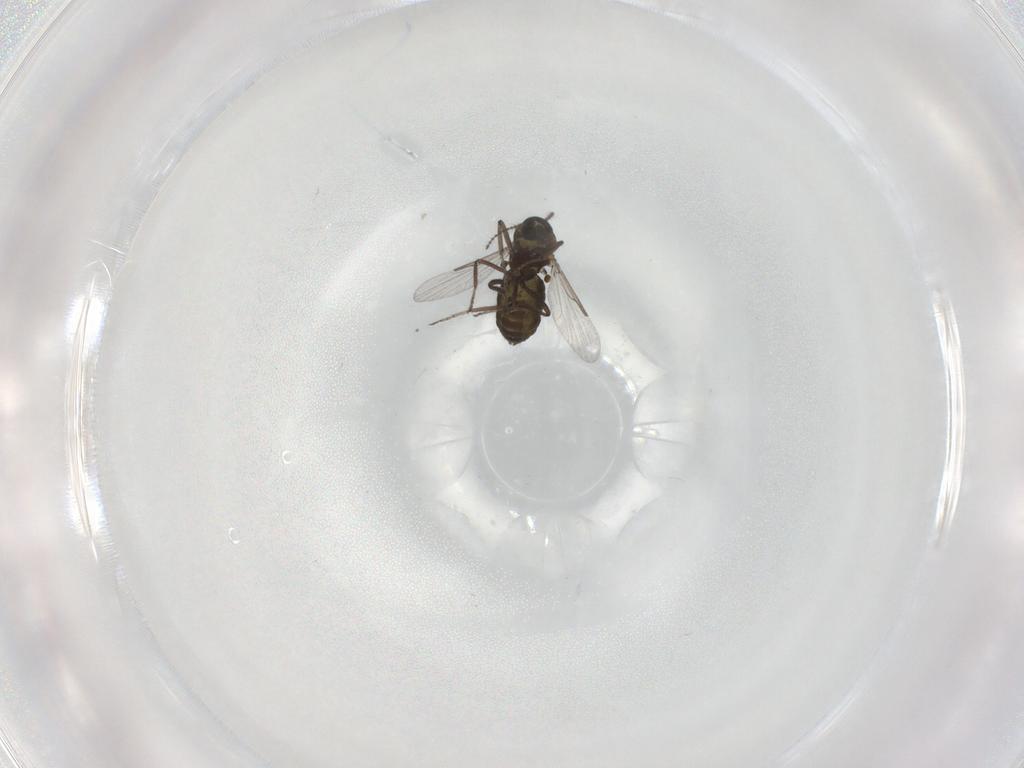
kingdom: Animalia
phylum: Arthropoda
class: Insecta
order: Diptera
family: Ceratopogonidae
